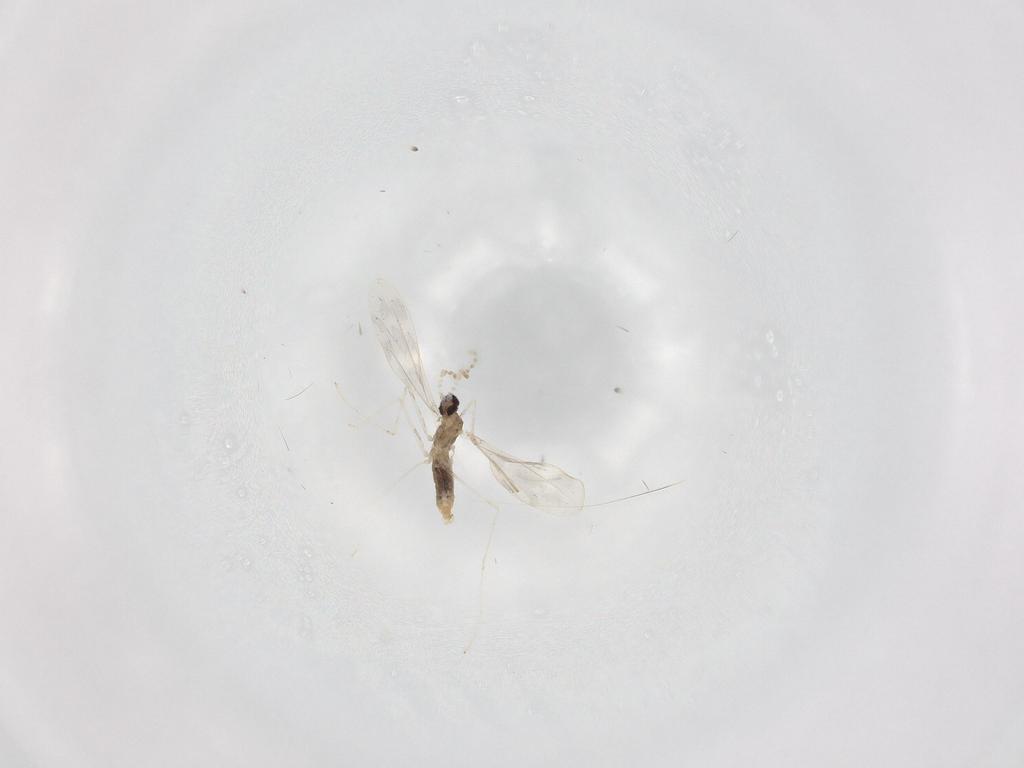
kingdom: Animalia
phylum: Arthropoda
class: Insecta
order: Diptera
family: Cecidomyiidae
